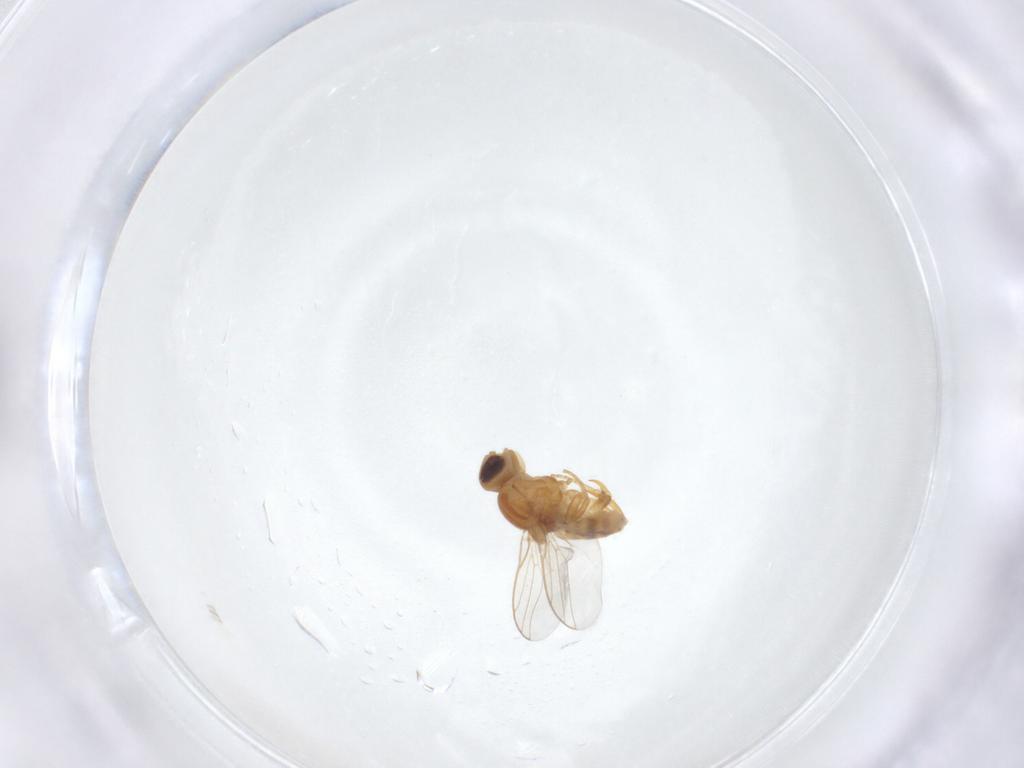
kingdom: Animalia
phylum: Arthropoda
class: Insecta
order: Diptera
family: Chloropidae
